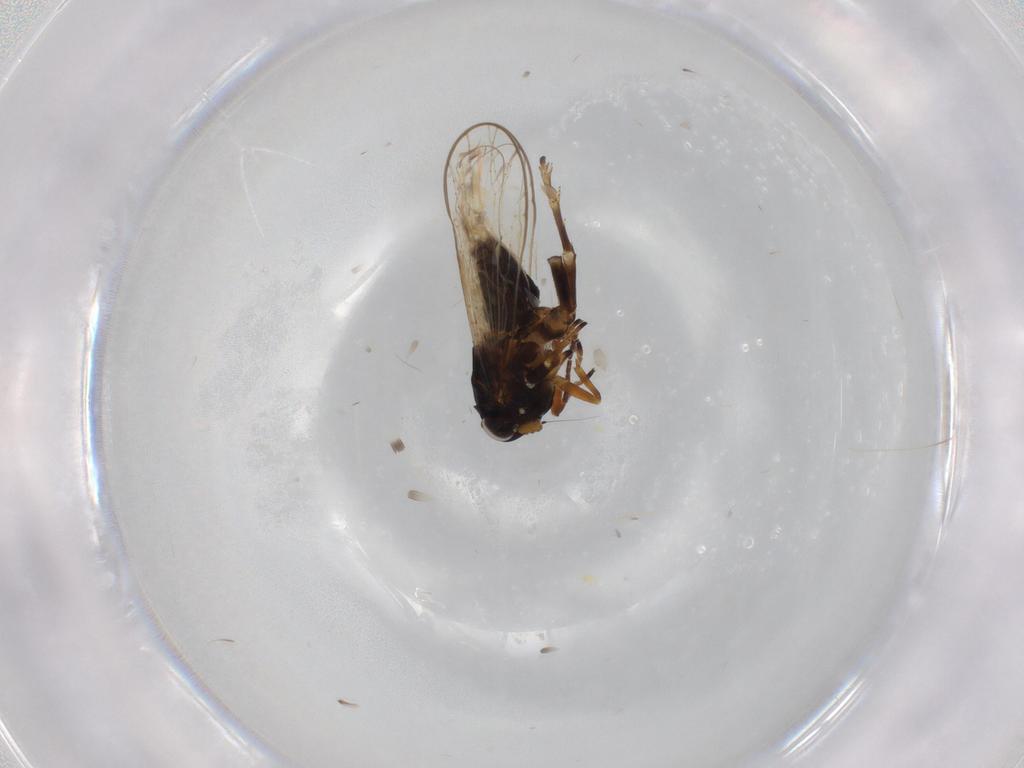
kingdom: Animalia
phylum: Arthropoda
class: Insecta
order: Hemiptera
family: Delphacidae
